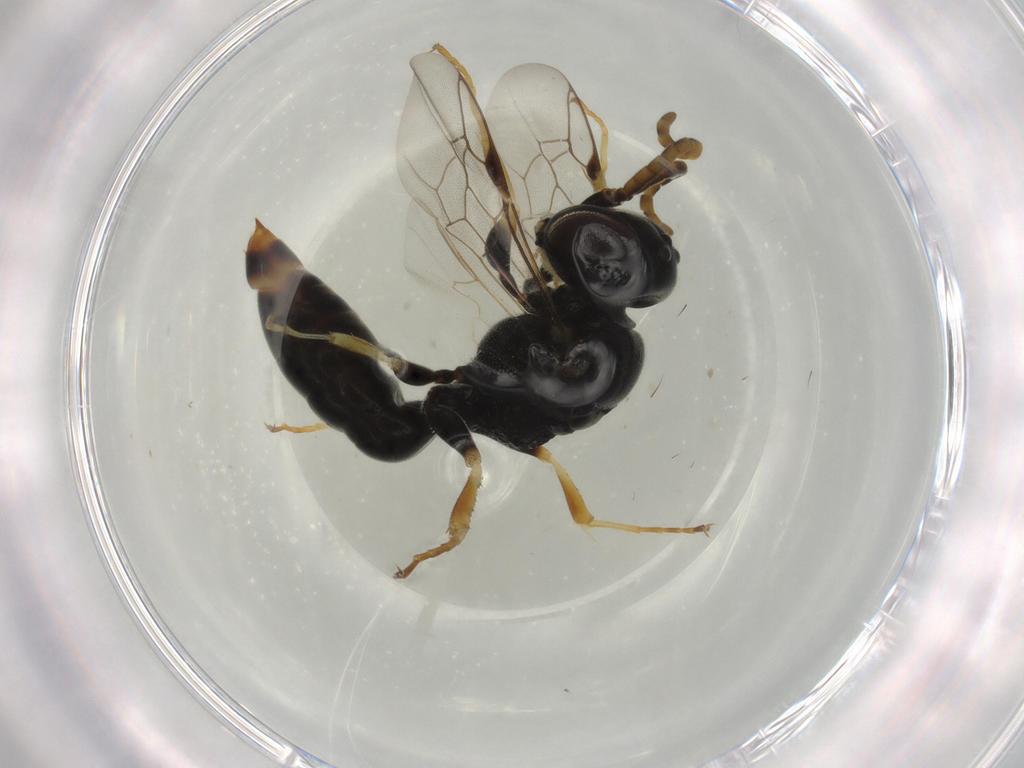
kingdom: Animalia
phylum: Arthropoda
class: Insecta
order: Hymenoptera
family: Crabronidae
